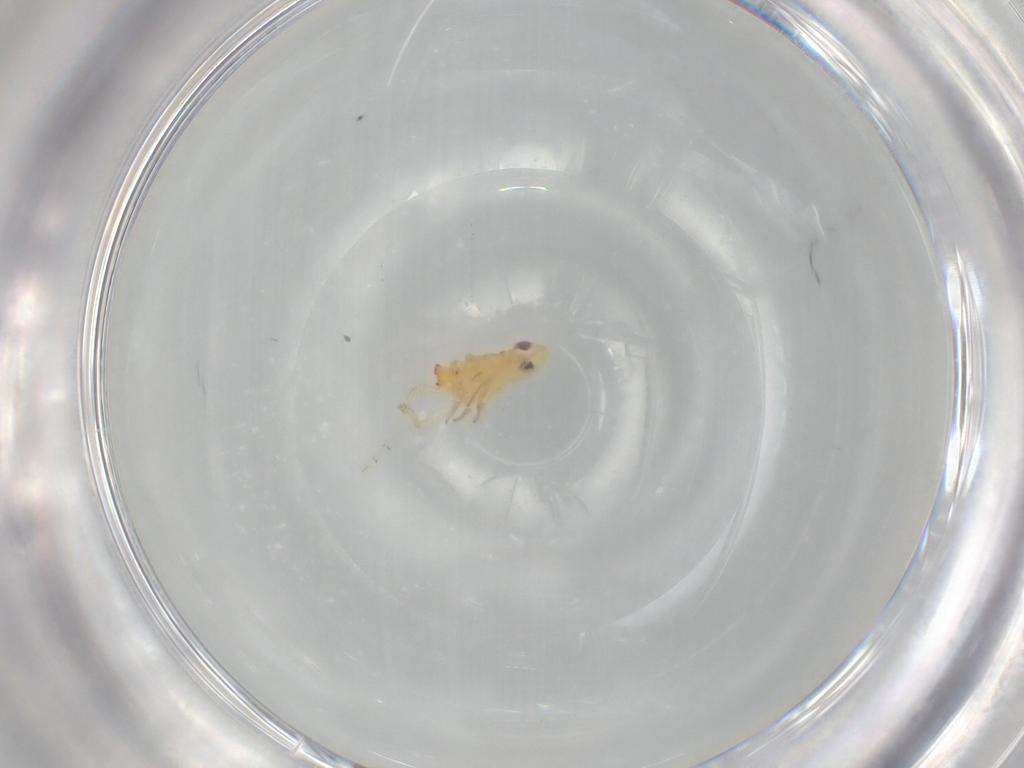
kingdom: Animalia
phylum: Arthropoda
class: Insecta
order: Hemiptera
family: Tropiduchidae
